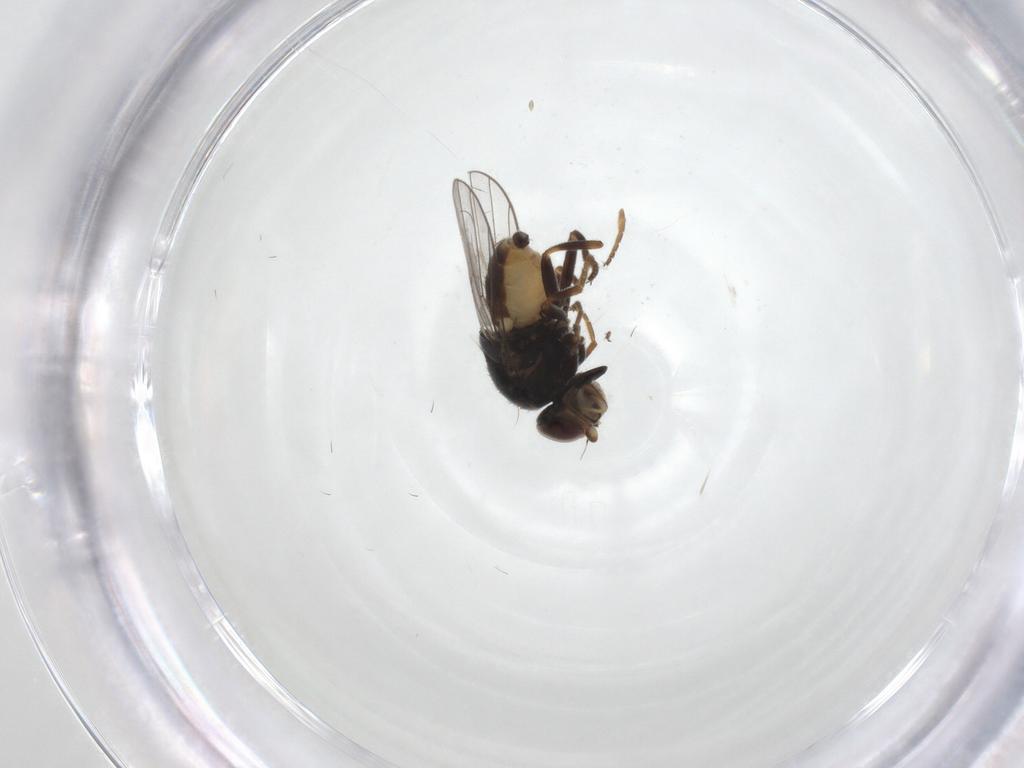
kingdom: Animalia
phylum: Arthropoda
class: Insecta
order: Diptera
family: Chloropidae
